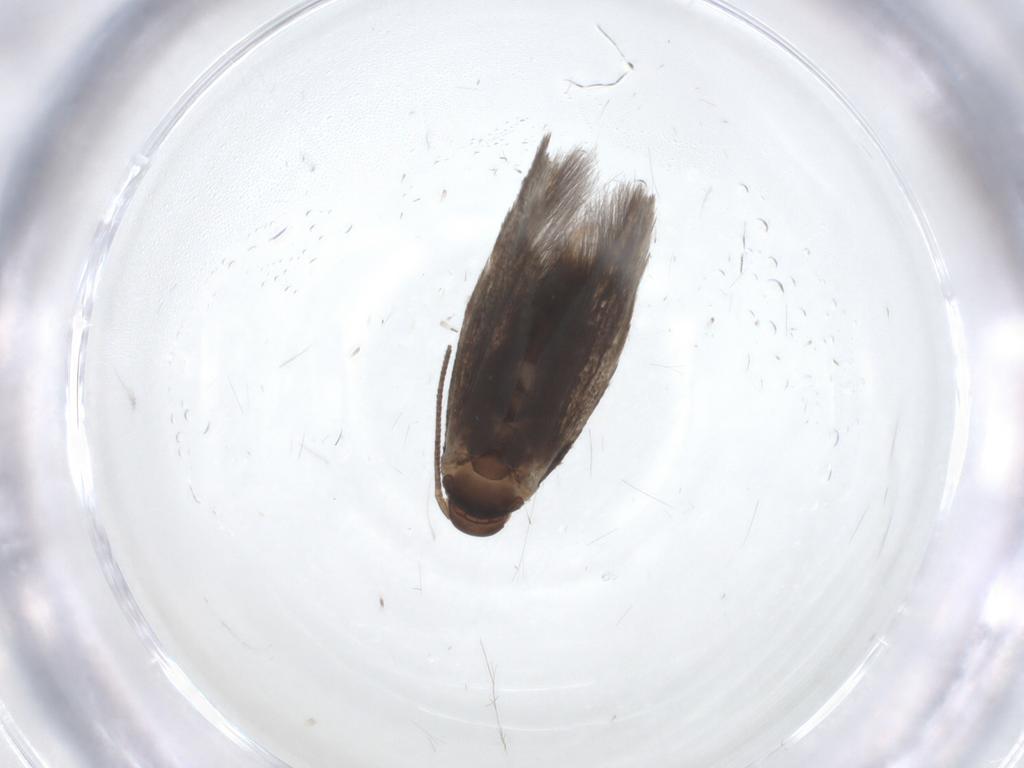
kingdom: Animalia
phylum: Arthropoda
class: Insecta
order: Lepidoptera
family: Elachistidae
